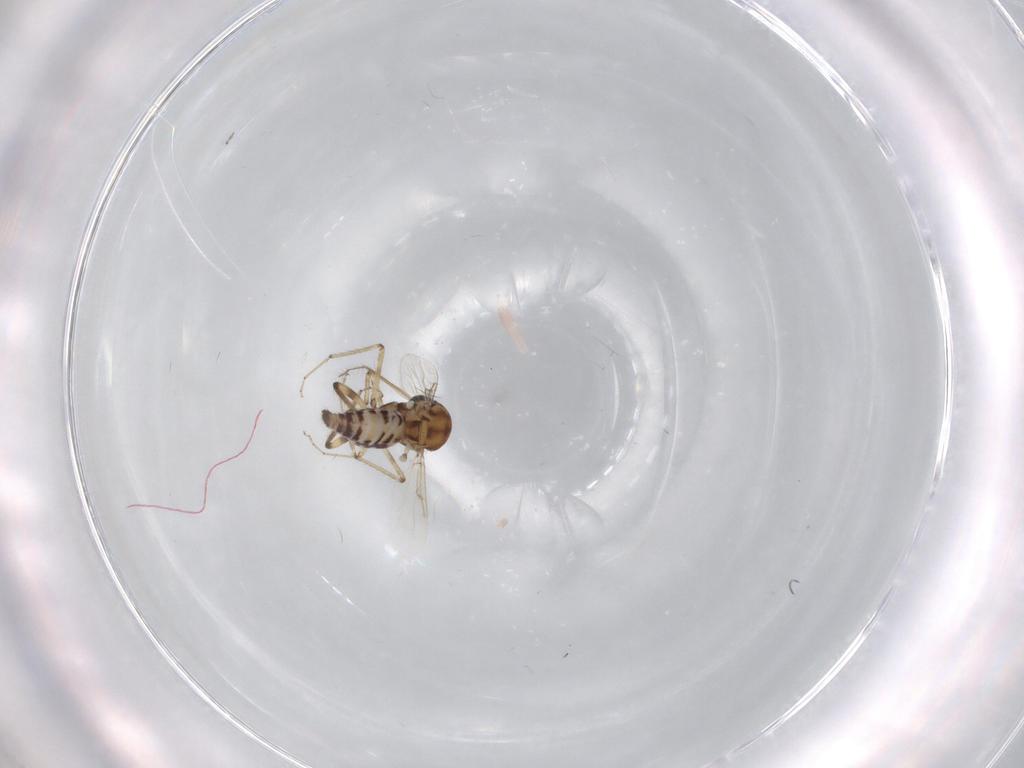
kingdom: Animalia
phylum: Arthropoda
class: Insecta
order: Diptera
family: Ceratopogonidae
